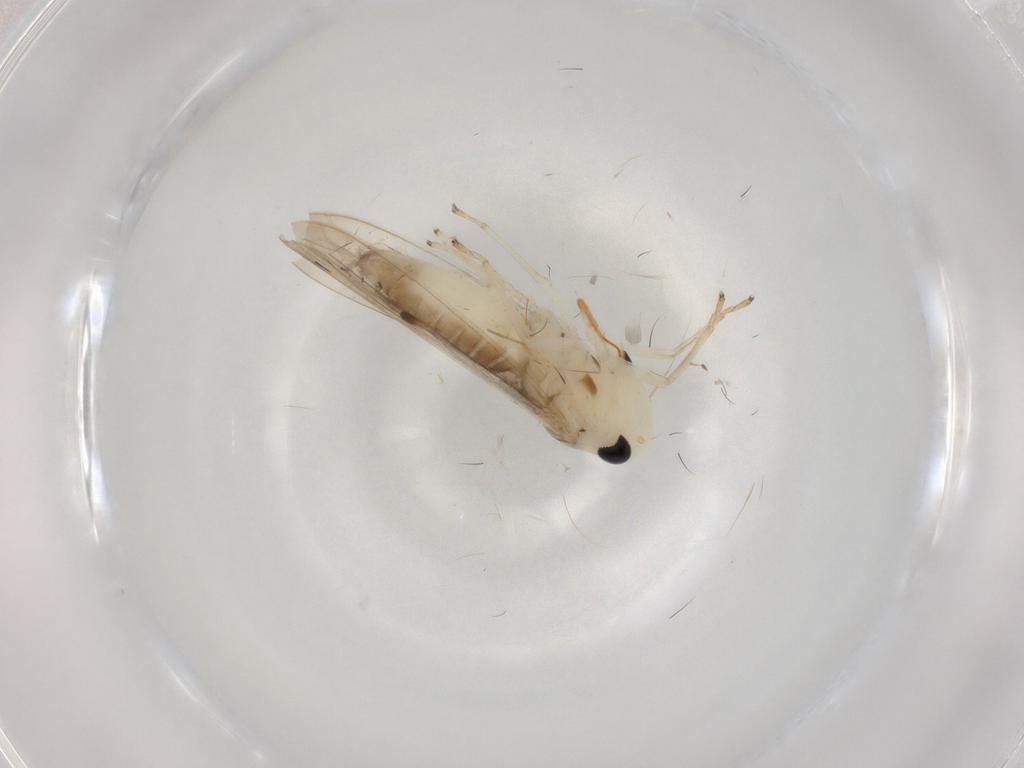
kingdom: Animalia
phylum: Arthropoda
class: Insecta
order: Hemiptera
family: Cicadellidae
